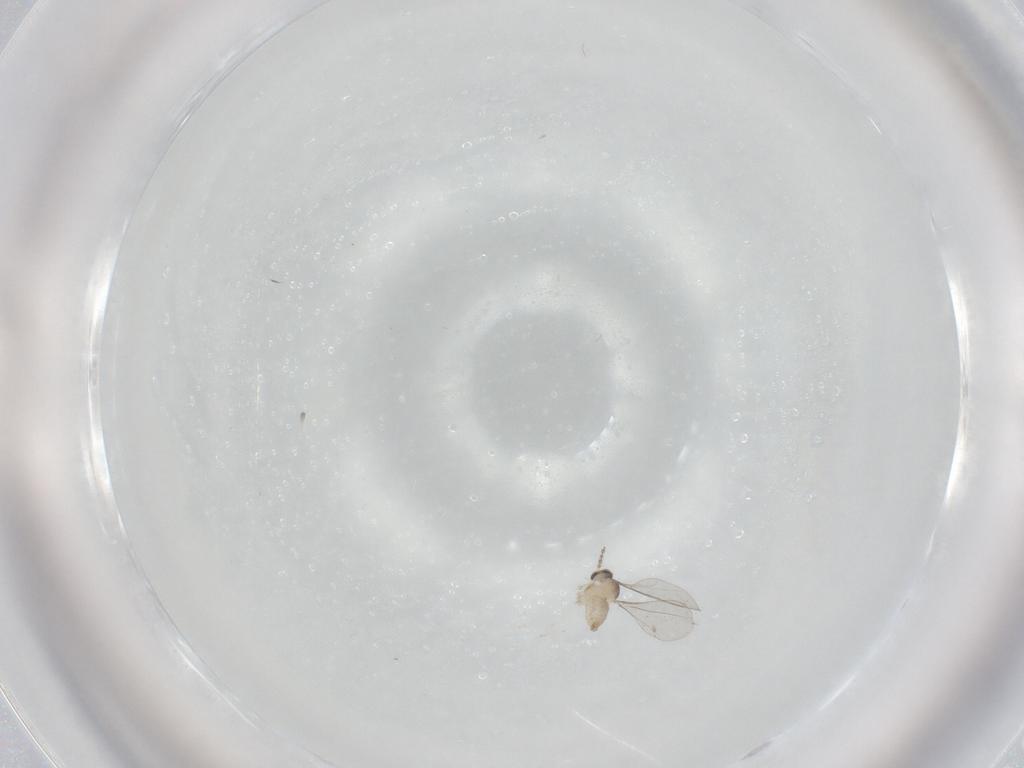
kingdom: Animalia
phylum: Arthropoda
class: Insecta
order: Diptera
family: Cecidomyiidae
